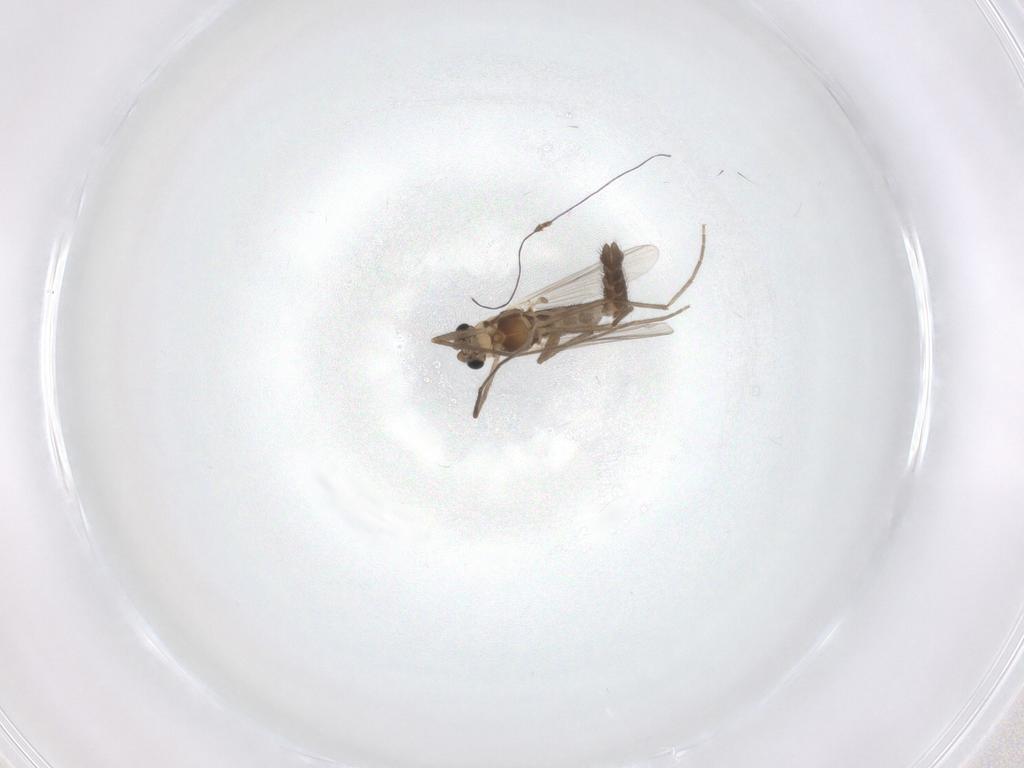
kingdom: Animalia
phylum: Arthropoda
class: Insecta
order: Diptera
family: Chironomidae
